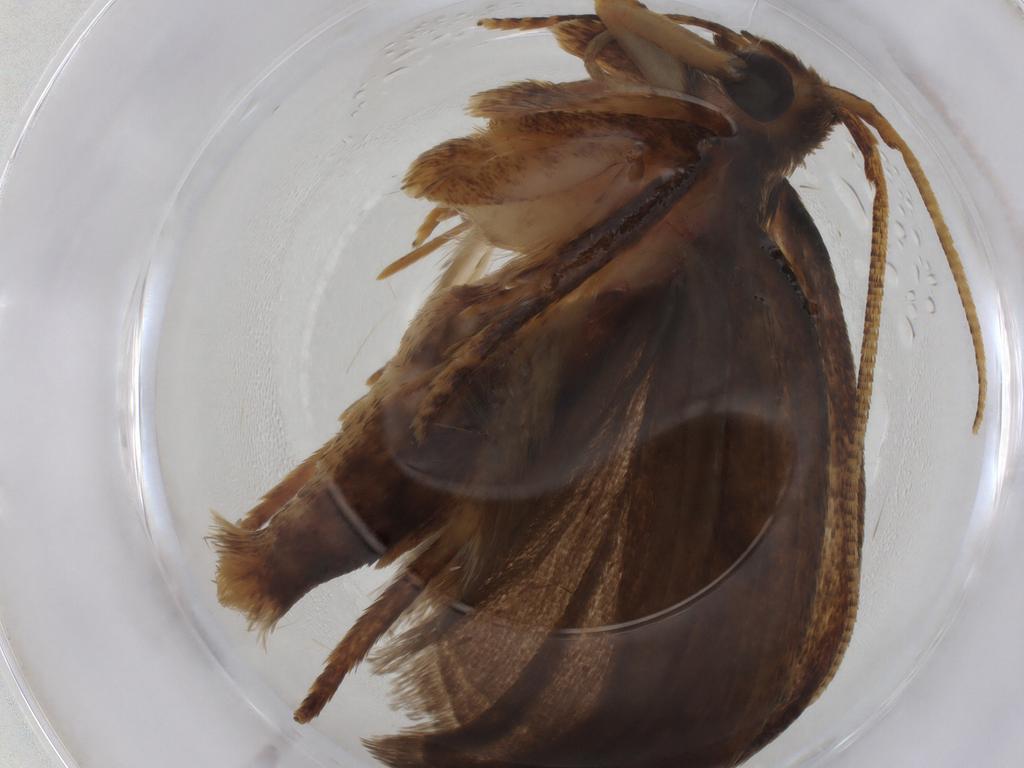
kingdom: Animalia
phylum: Arthropoda
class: Insecta
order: Lepidoptera
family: Autostichidae
